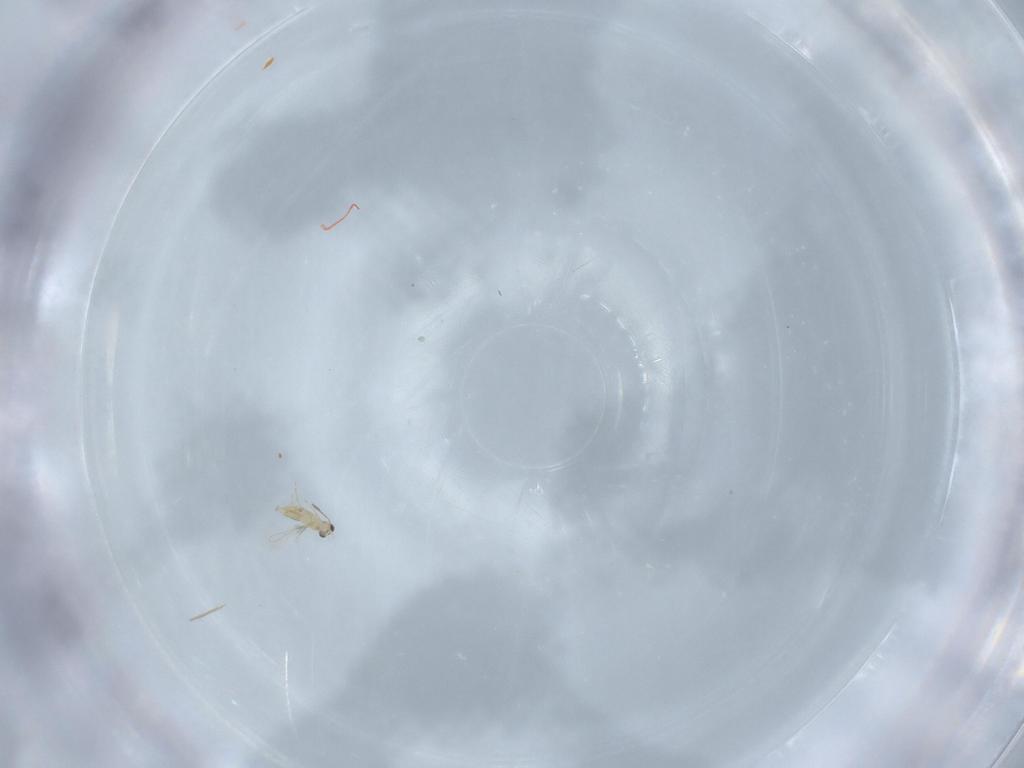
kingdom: Animalia
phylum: Arthropoda
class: Insecta
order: Hymenoptera
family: Mymaridae
